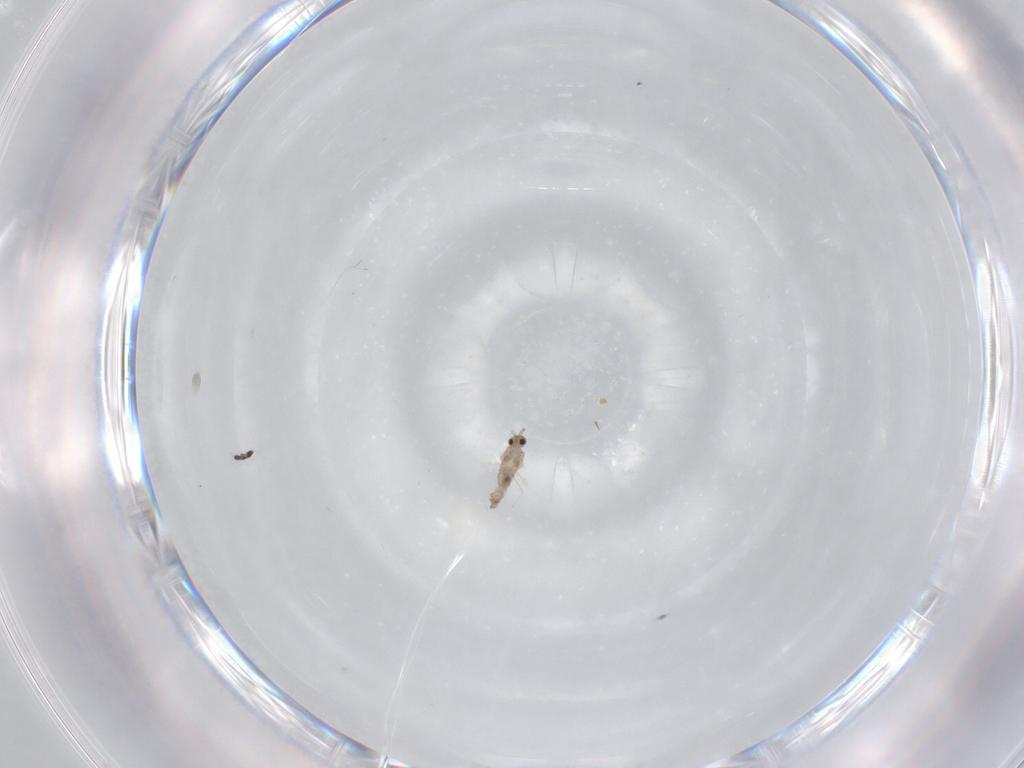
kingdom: Animalia
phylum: Arthropoda
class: Insecta
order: Diptera
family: Cecidomyiidae
